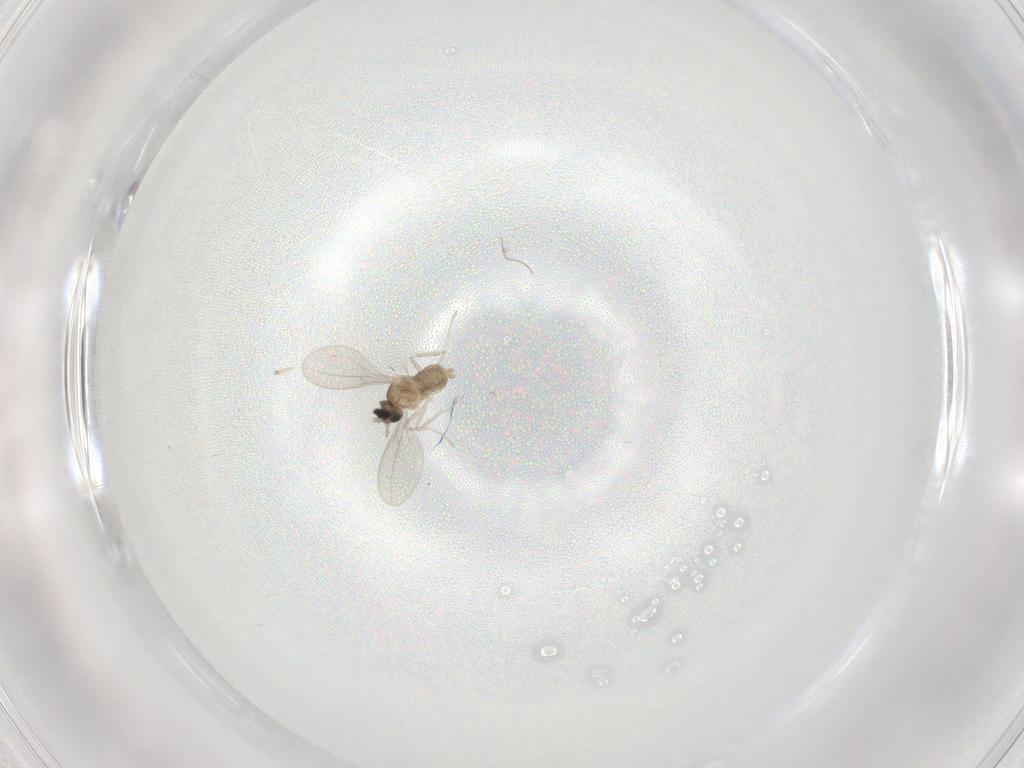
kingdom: Animalia
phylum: Arthropoda
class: Insecta
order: Diptera
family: Cecidomyiidae
